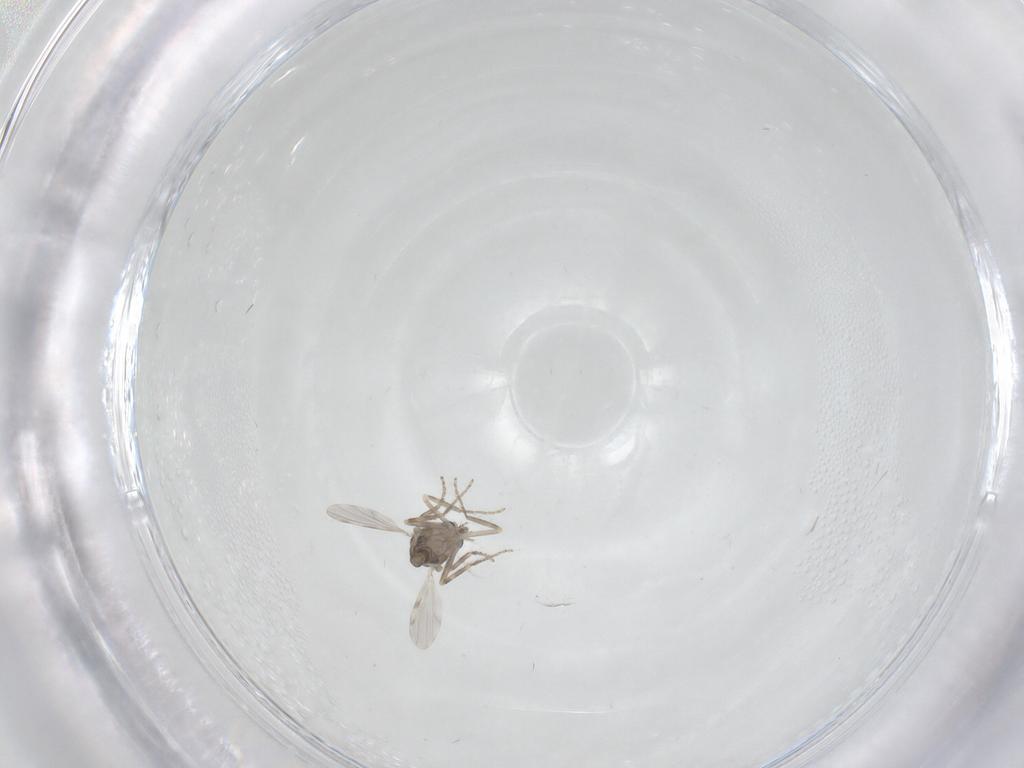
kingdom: Animalia
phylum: Arthropoda
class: Insecta
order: Diptera
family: Ceratopogonidae
